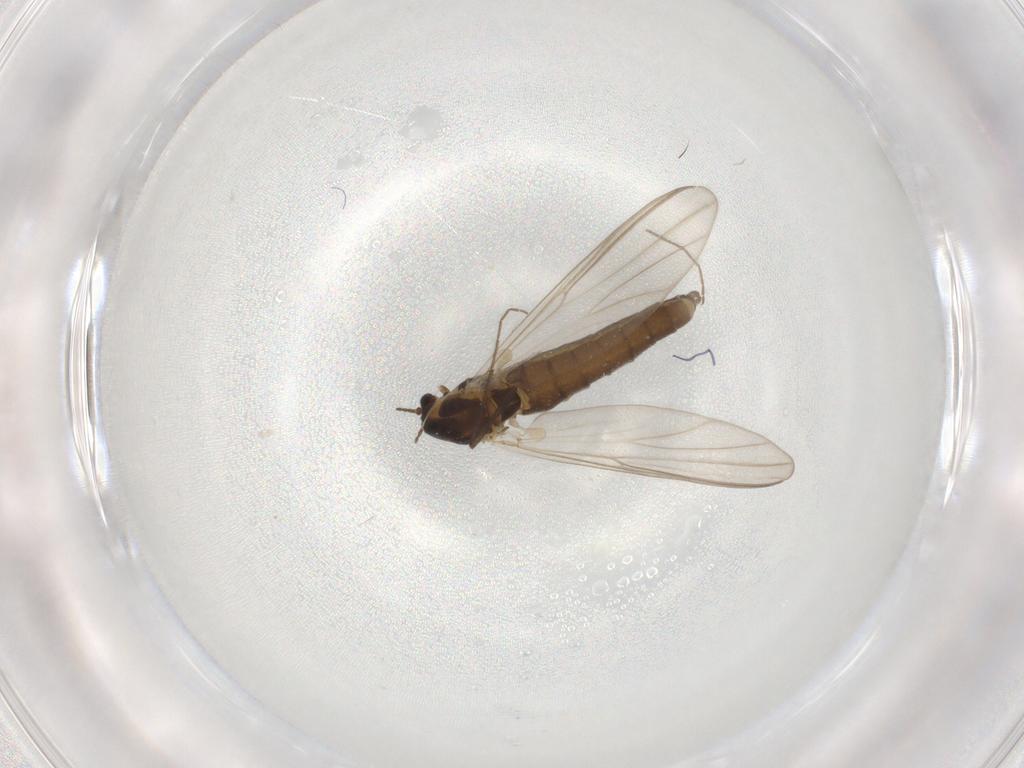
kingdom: Animalia
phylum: Arthropoda
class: Insecta
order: Diptera
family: Chironomidae
